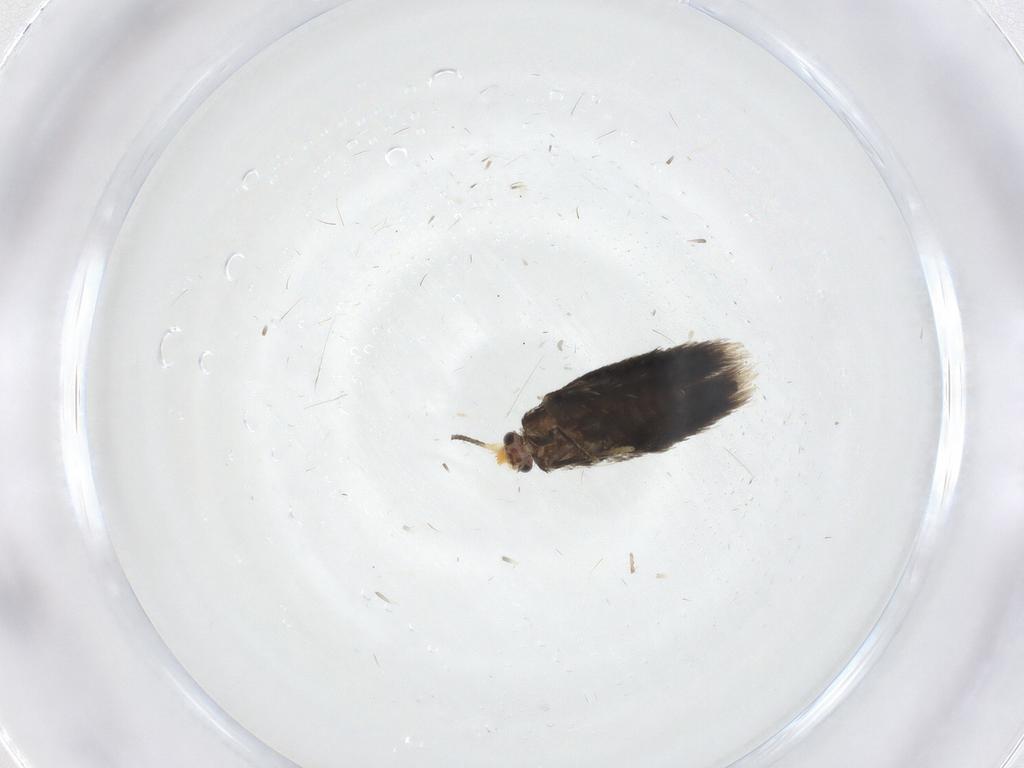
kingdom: Animalia
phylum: Arthropoda
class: Insecta
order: Lepidoptera
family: Nepticulidae
